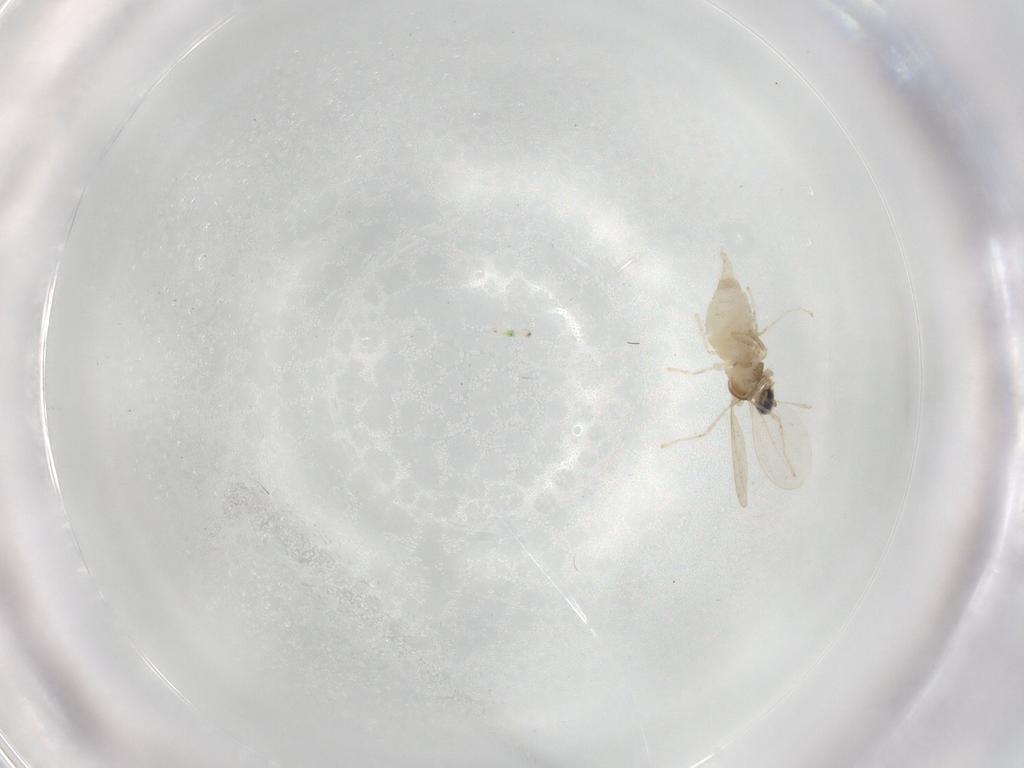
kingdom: Animalia
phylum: Arthropoda
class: Insecta
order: Diptera
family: Cecidomyiidae
